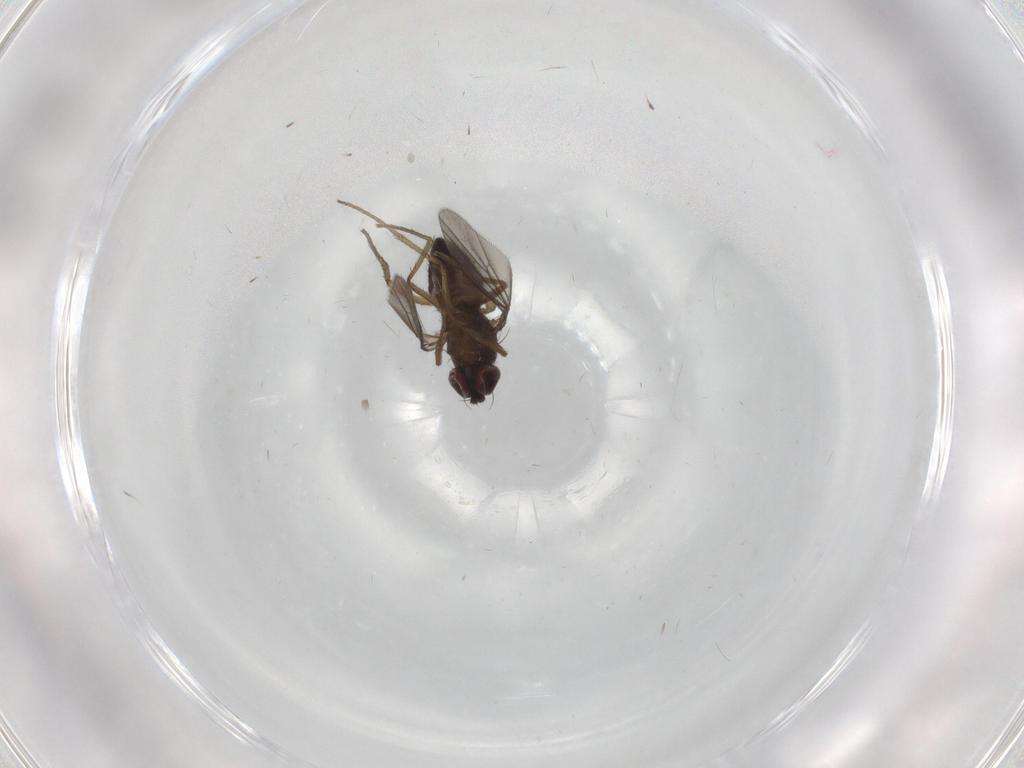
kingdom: Animalia
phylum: Arthropoda
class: Insecta
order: Diptera
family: Dolichopodidae
